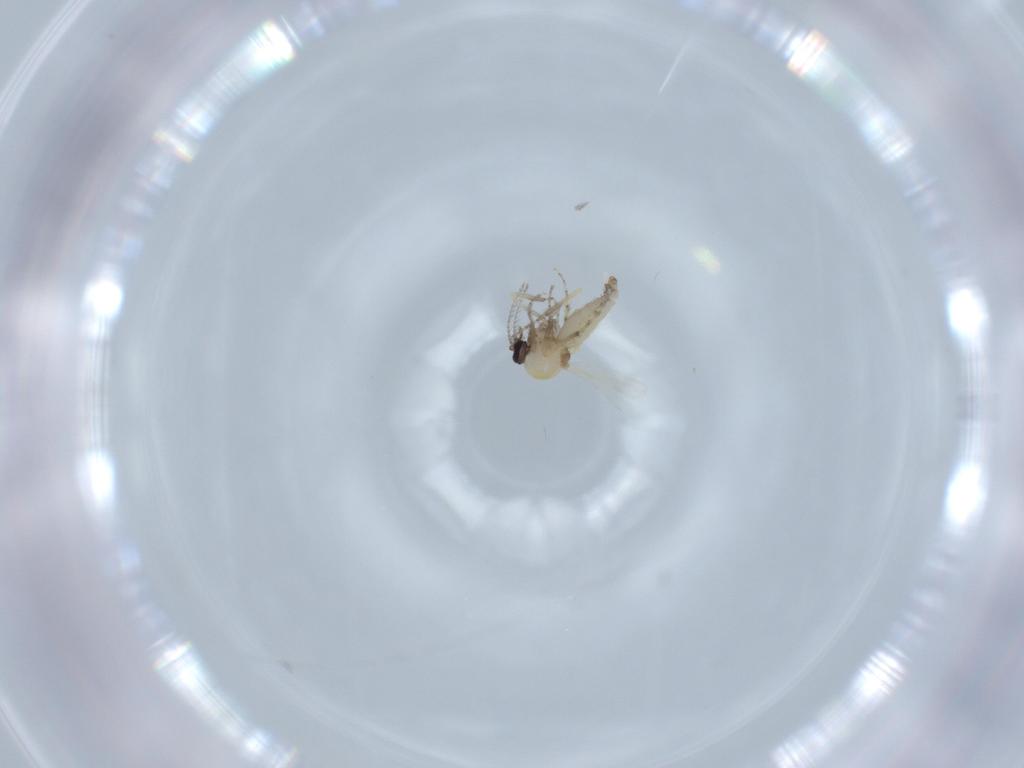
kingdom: Animalia
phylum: Arthropoda
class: Insecta
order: Diptera
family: Ceratopogonidae
